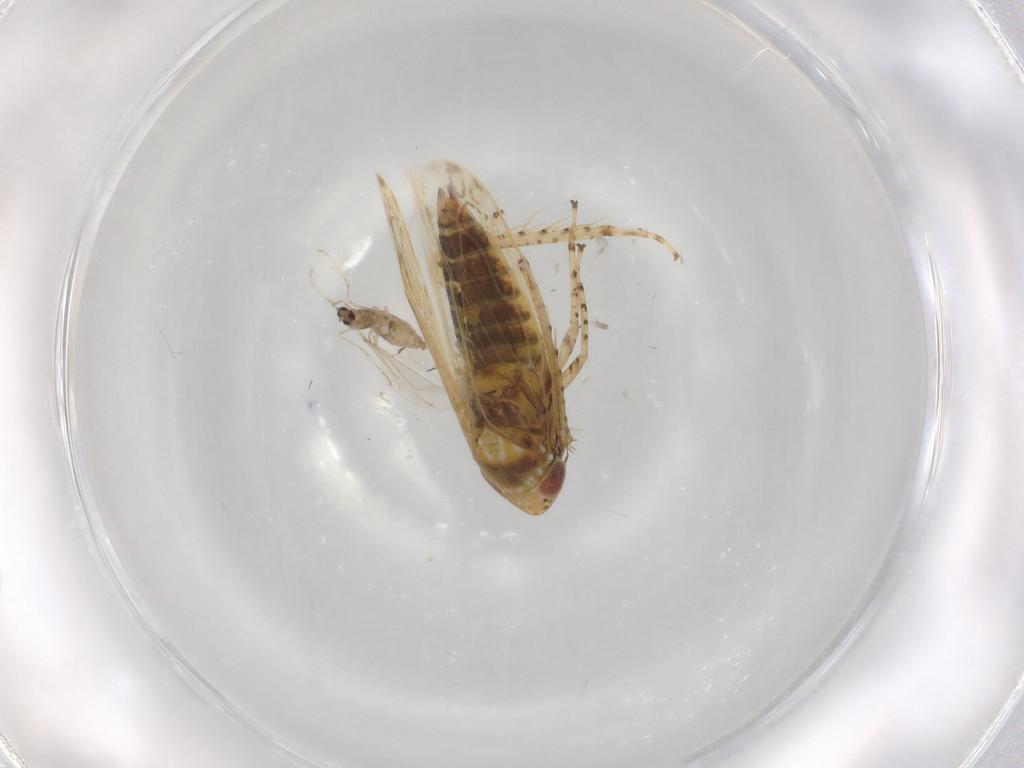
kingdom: Animalia
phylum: Arthropoda
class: Insecta
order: Diptera
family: Cecidomyiidae
